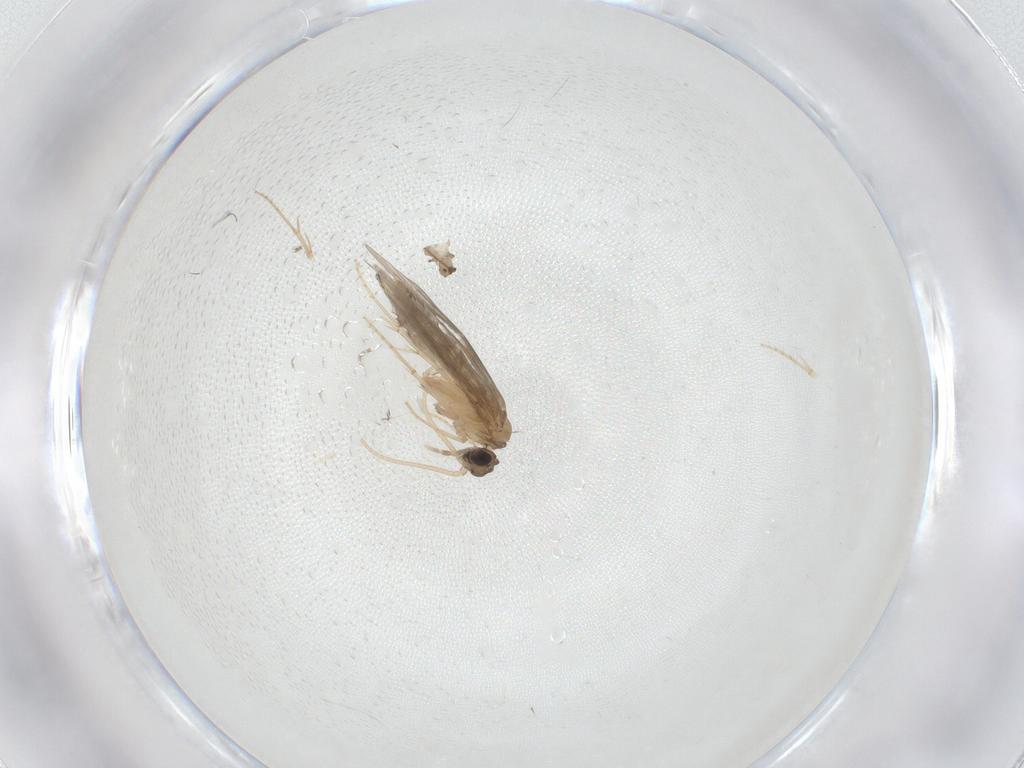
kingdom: Animalia
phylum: Arthropoda
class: Insecta
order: Trichoptera
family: Hydroptilidae
